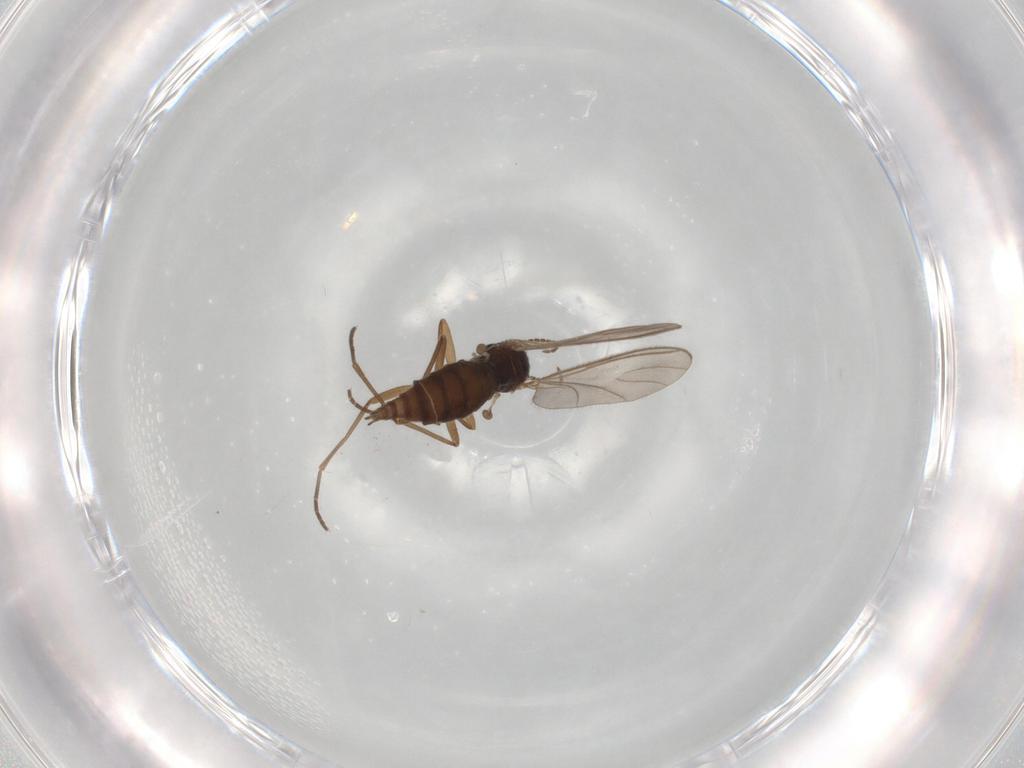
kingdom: Animalia
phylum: Arthropoda
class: Insecta
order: Diptera
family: Sciaridae
